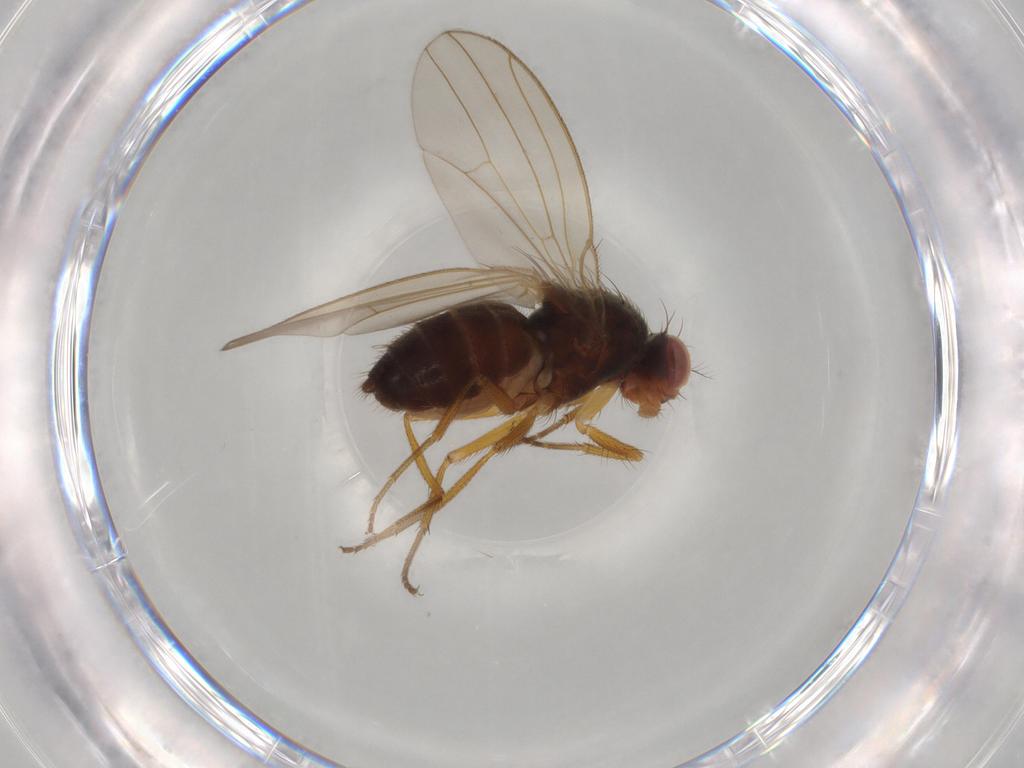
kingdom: Animalia
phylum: Arthropoda
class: Insecta
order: Diptera
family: Drosophilidae
